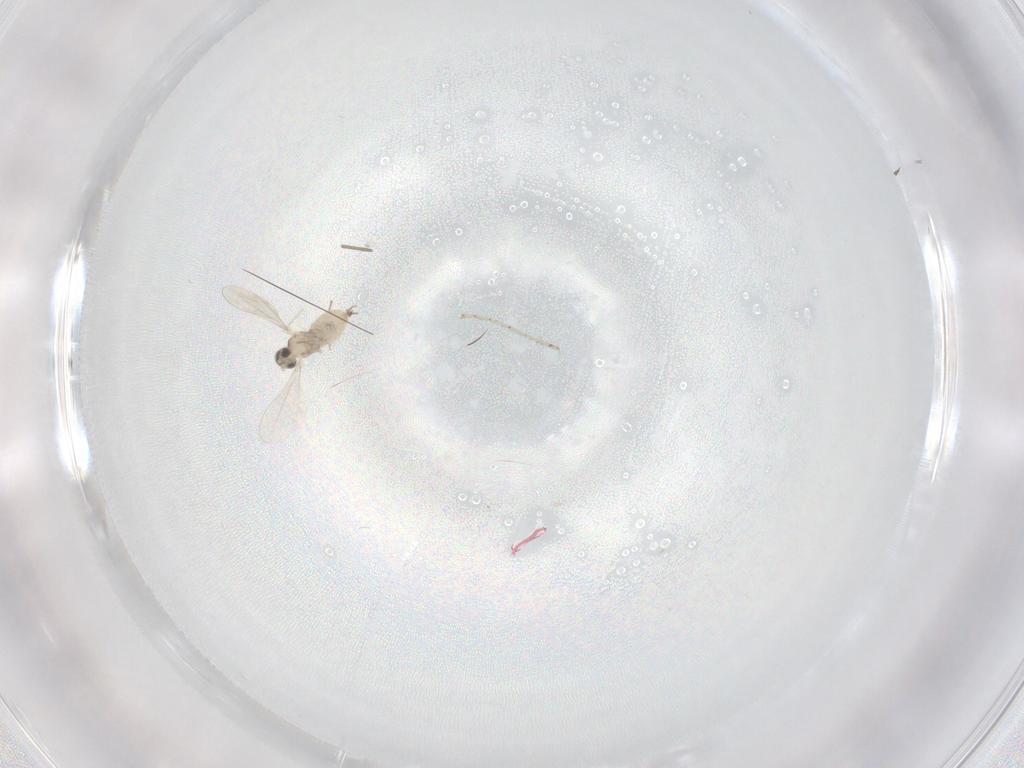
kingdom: Animalia
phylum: Arthropoda
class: Insecta
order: Diptera
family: Cecidomyiidae
